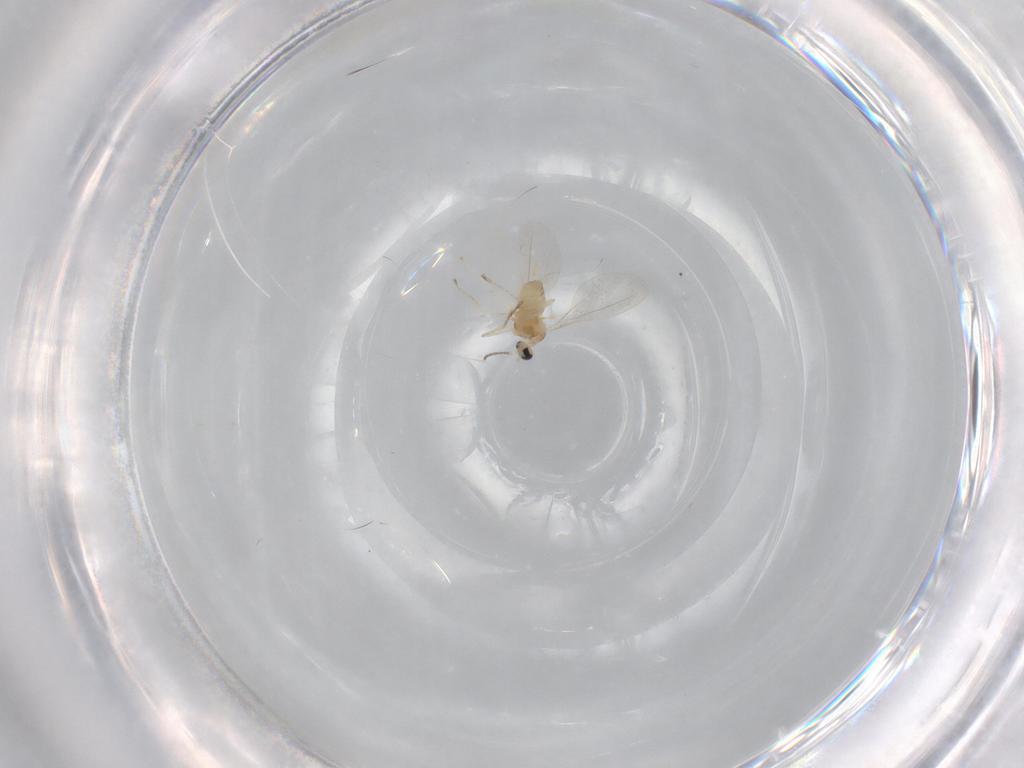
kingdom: Animalia
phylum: Arthropoda
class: Insecta
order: Diptera
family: Cecidomyiidae
